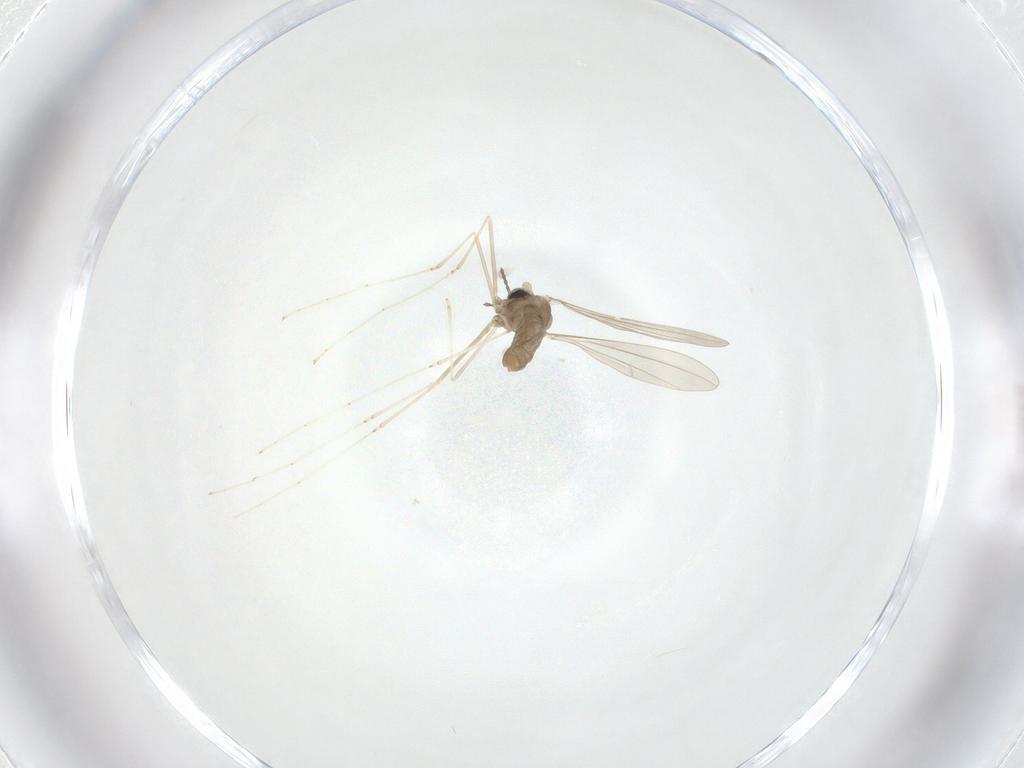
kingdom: Animalia
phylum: Arthropoda
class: Insecta
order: Diptera
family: Cecidomyiidae
